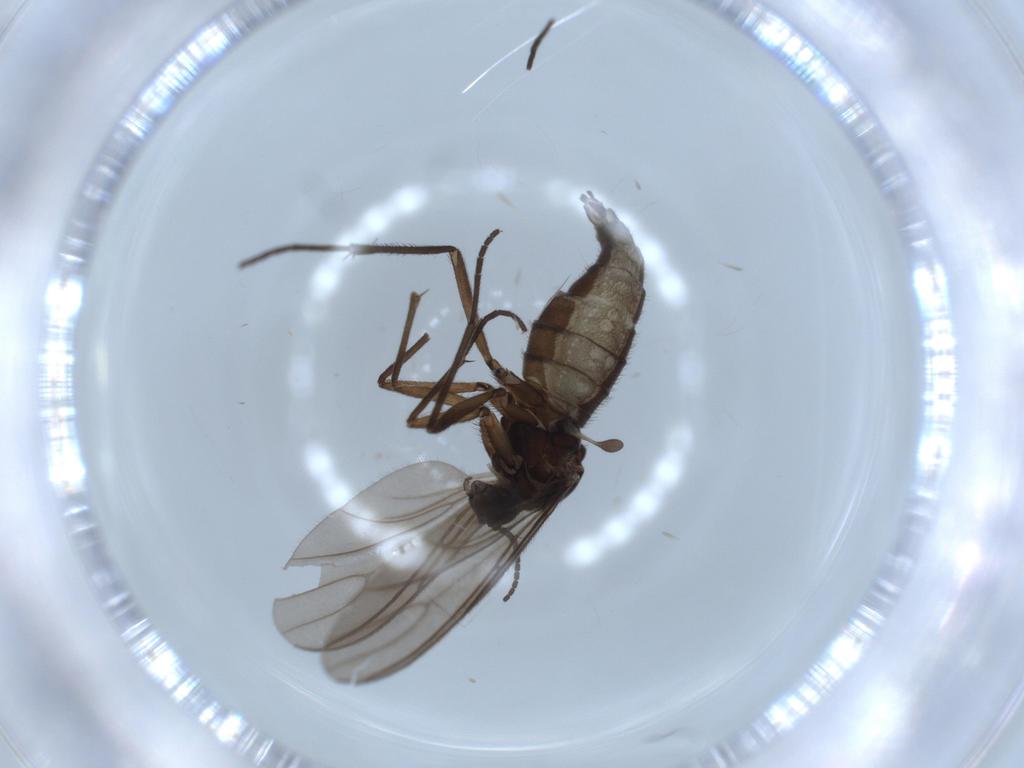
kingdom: Animalia
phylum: Arthropoda
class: Insecta
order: Diptera
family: Sciaridae
